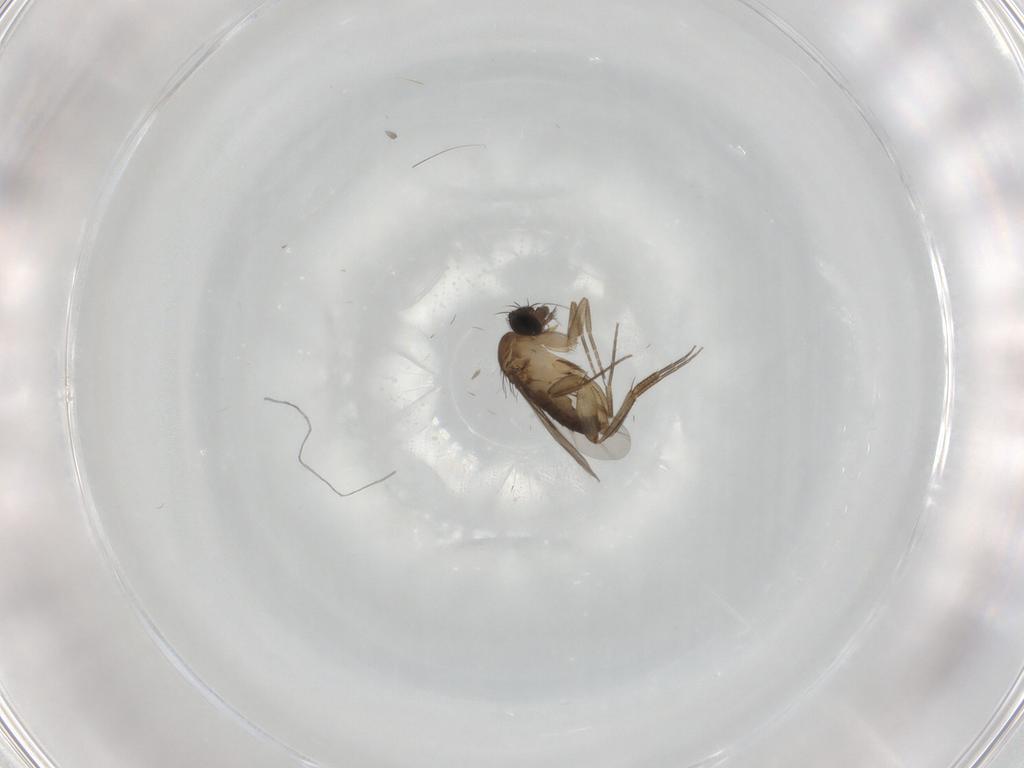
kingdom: Animalia
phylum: Arthropoda
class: Insecta
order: Diptera
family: Phoridae
